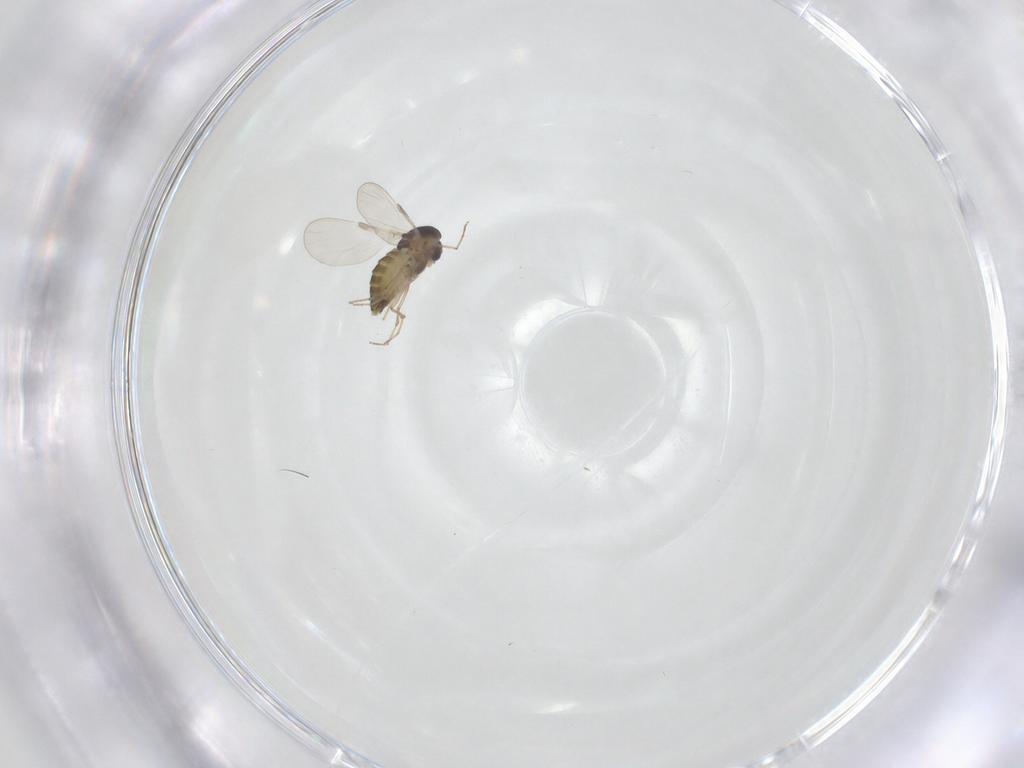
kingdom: Animalia
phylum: Arthropoda
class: Insecta
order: Diptera
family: Chironomidae
